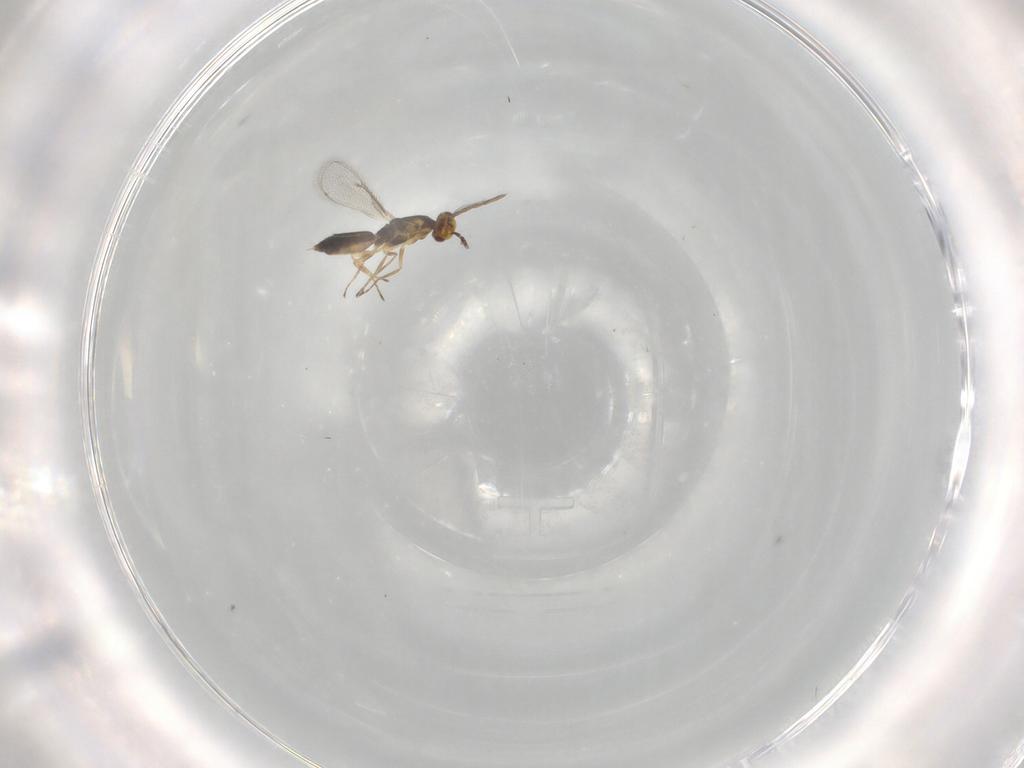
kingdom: Animalia
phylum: Arthropoda
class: Insecta
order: Hymenoptera
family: Eulophidae
